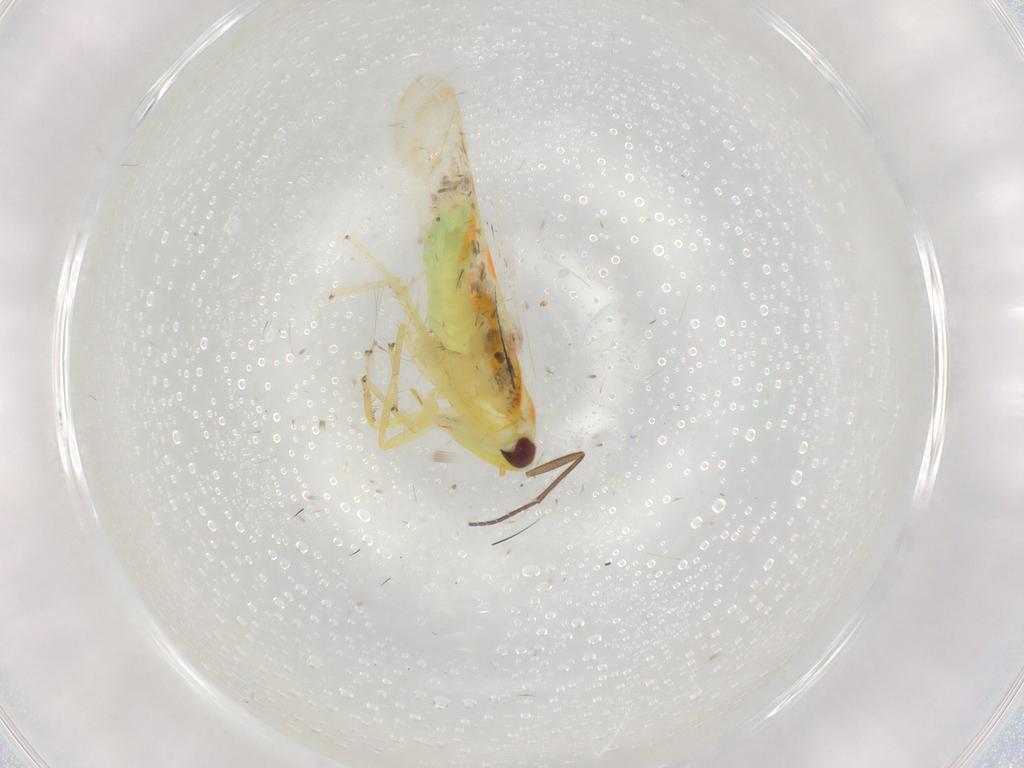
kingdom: Animalia
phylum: Arthropoda
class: Insecta
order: Hemiptera
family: Cicadellidae
